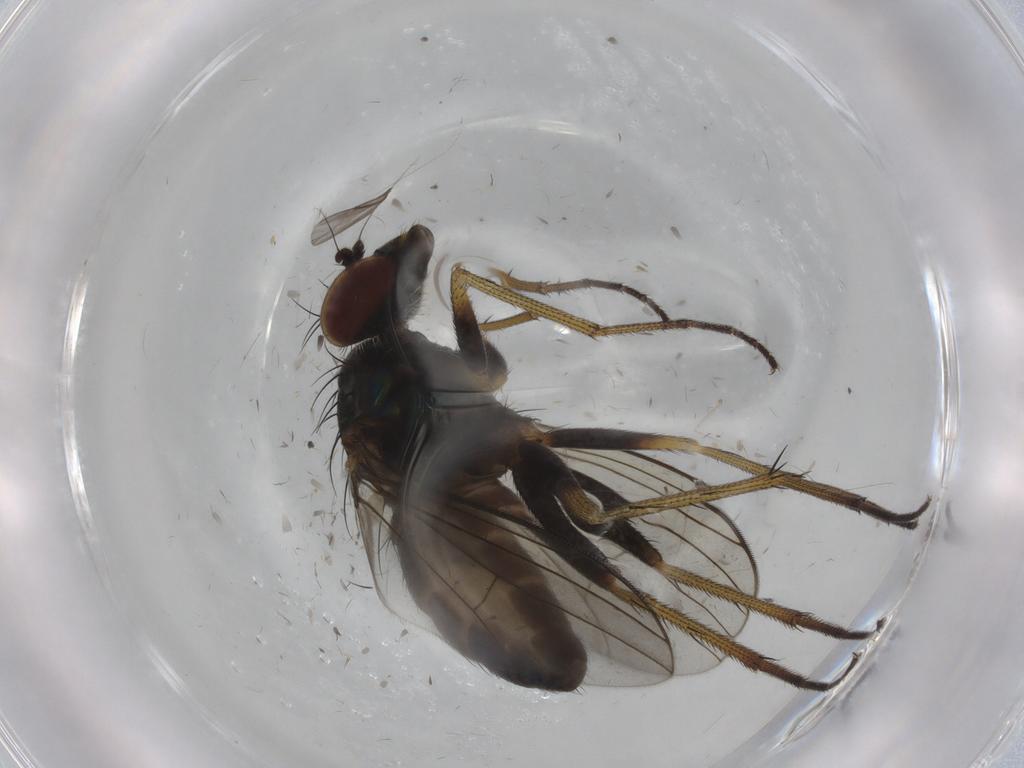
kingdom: Animalia
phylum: Arthropoda
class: Insecta
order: Diptera
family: Dolichopodidae
